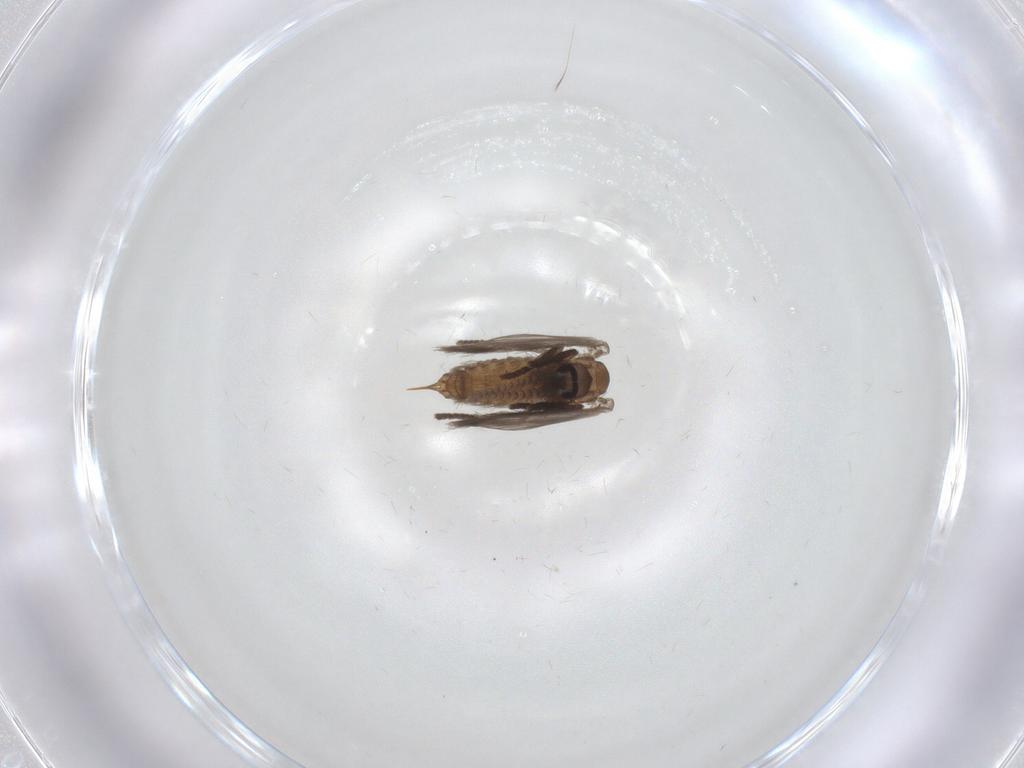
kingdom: Animalia
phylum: Arthropoda
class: Insecta
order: Diptera
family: Psychodidae
